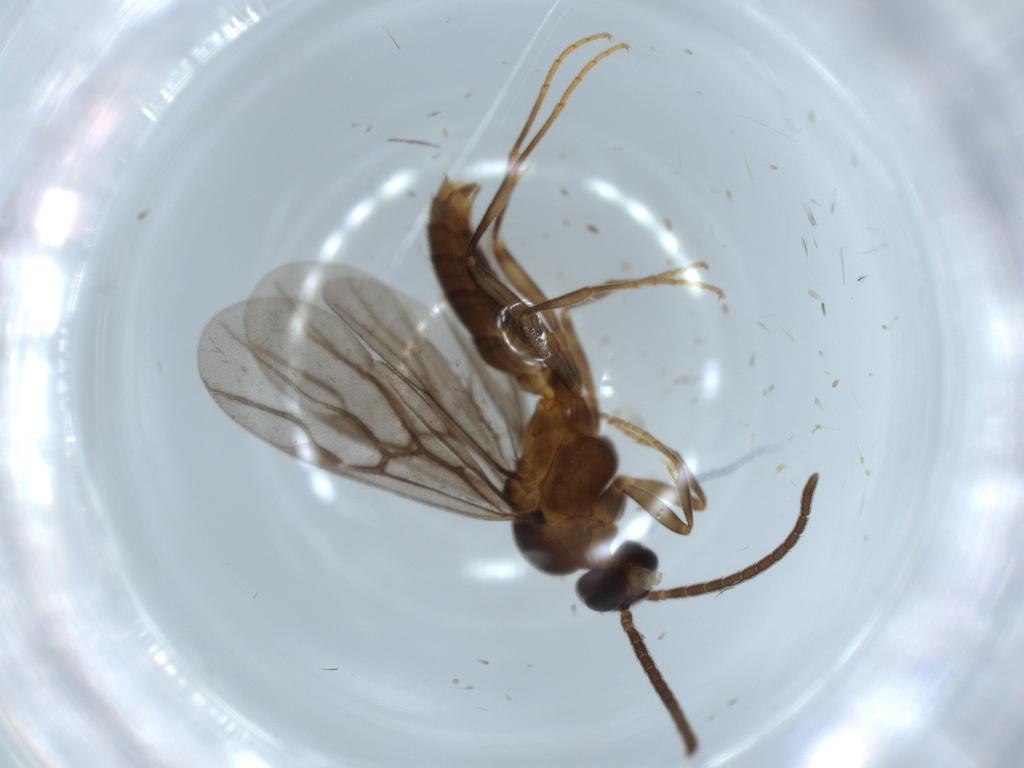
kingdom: Animalia
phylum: Arthropoda
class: Insecta
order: Hymenoptera
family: Formicidae
